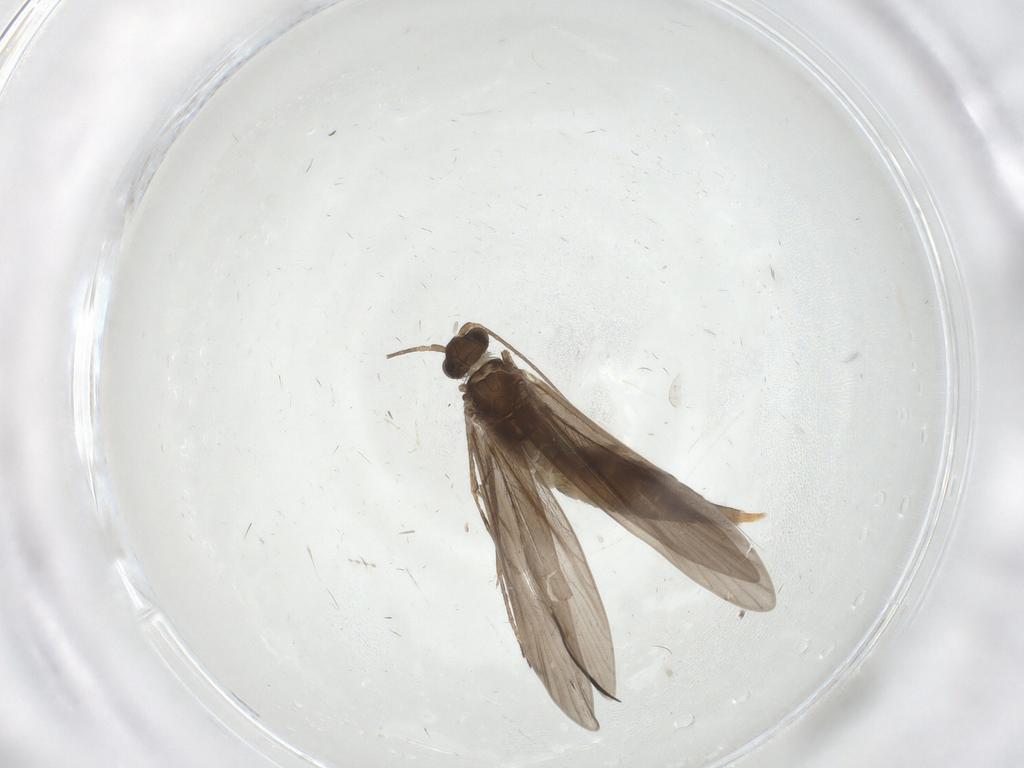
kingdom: Animalia
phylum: Arthropoda
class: Insecta
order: Trichoptera
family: Xiphocentronidae
